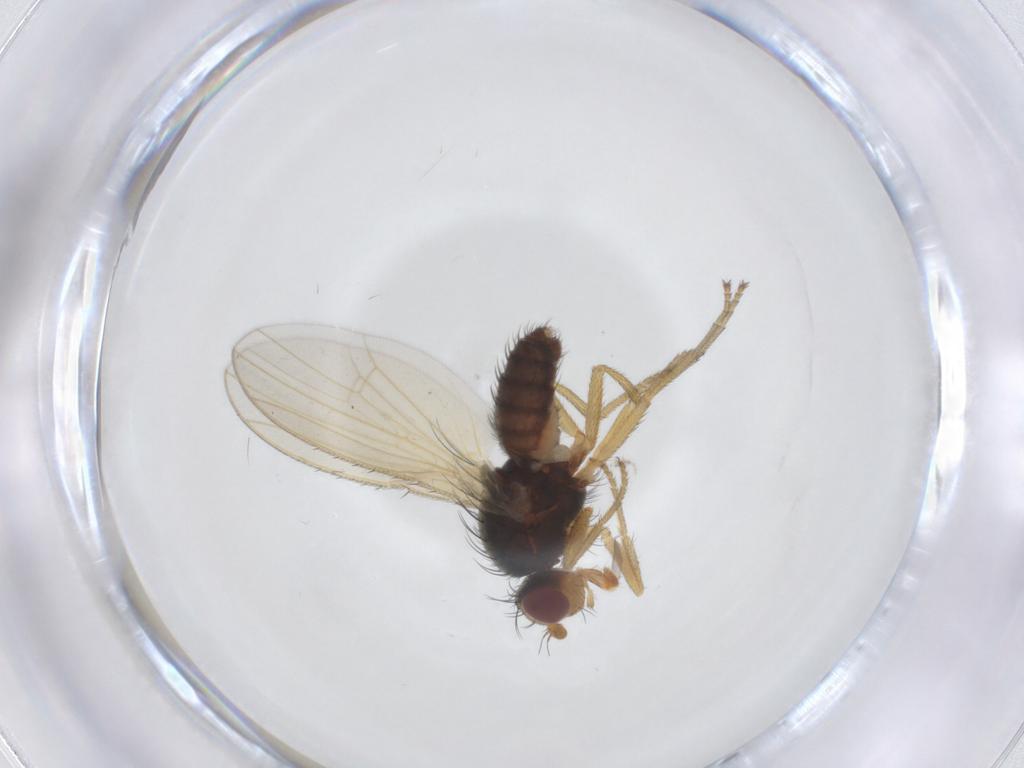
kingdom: Animalia
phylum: Arthropoda
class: Insecta
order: Diptera
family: Heleomyzidae
